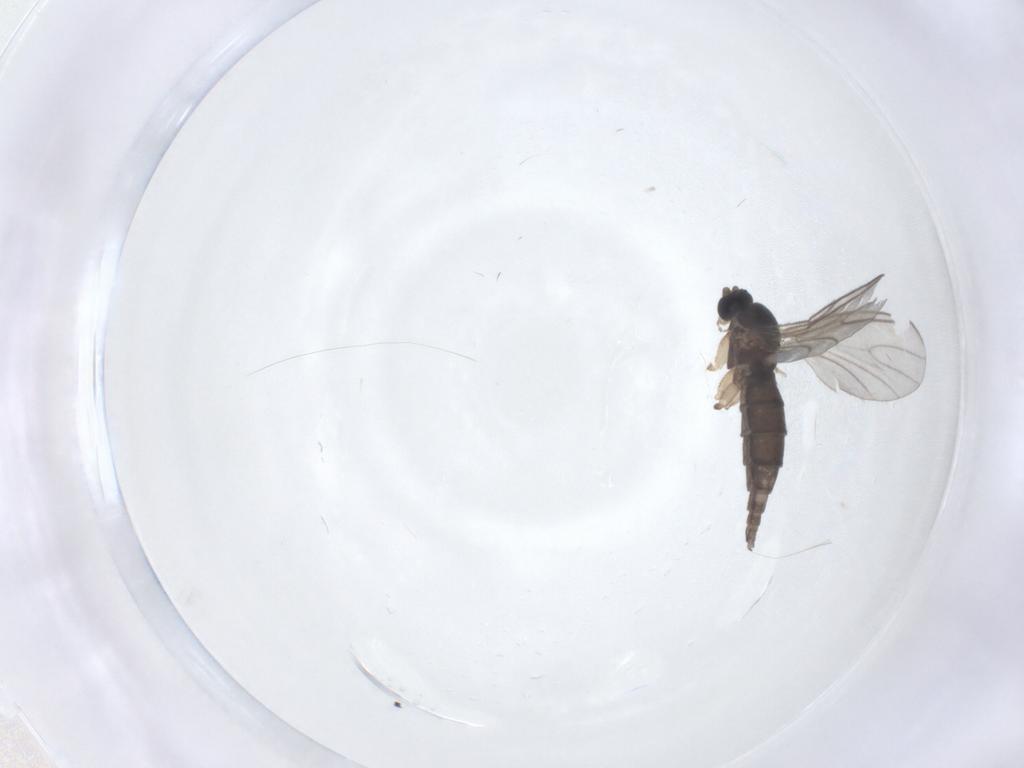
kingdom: Animalia
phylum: Arthropoda
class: Insecta
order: Diptera
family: Sciaridae
